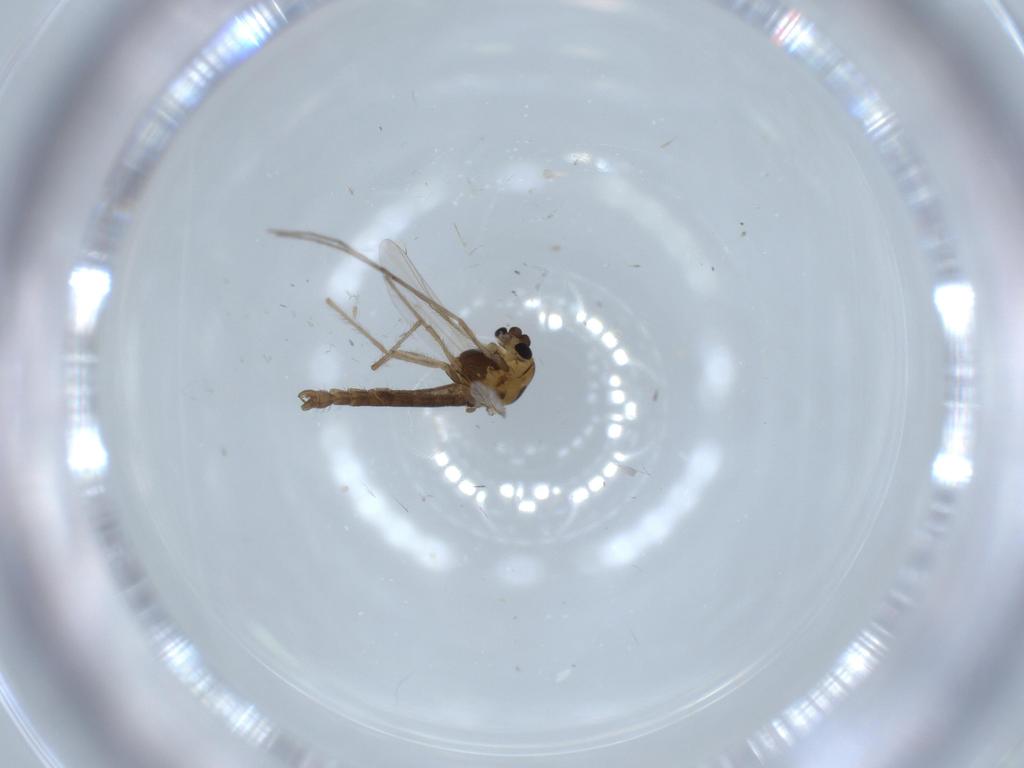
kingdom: Animalia
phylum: Arthropoda
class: Insecta
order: Diptera
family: Chironomidae
